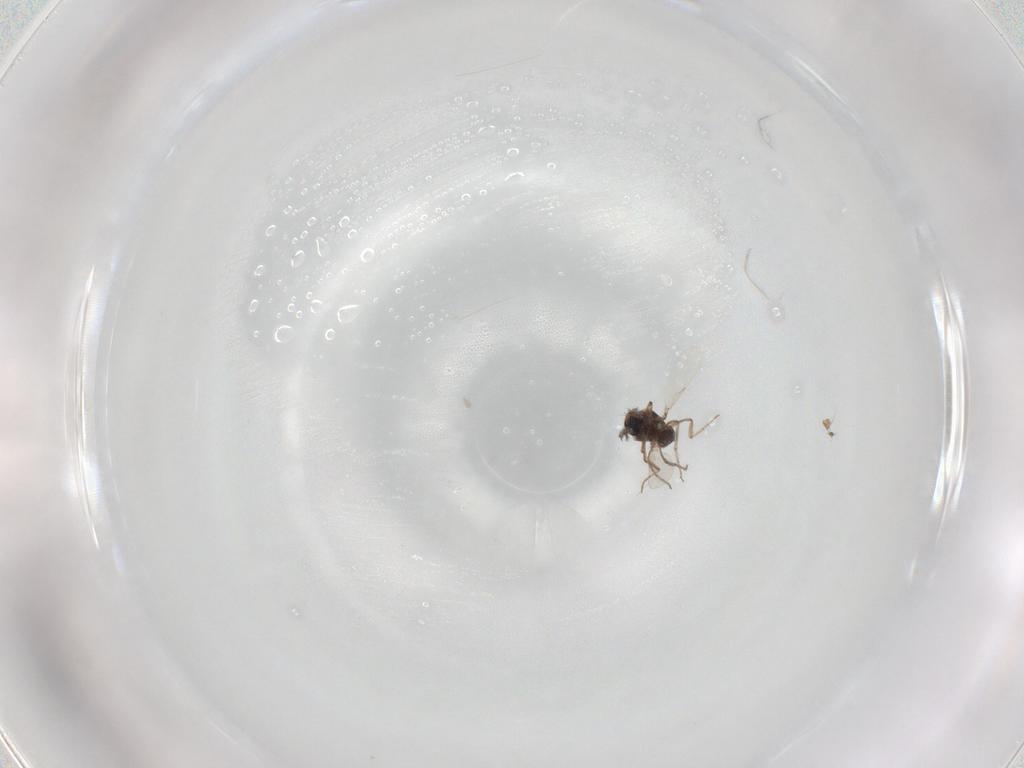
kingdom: Animalia
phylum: Arthropoda
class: Insecta
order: Diptera
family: Ceratopogonidae
